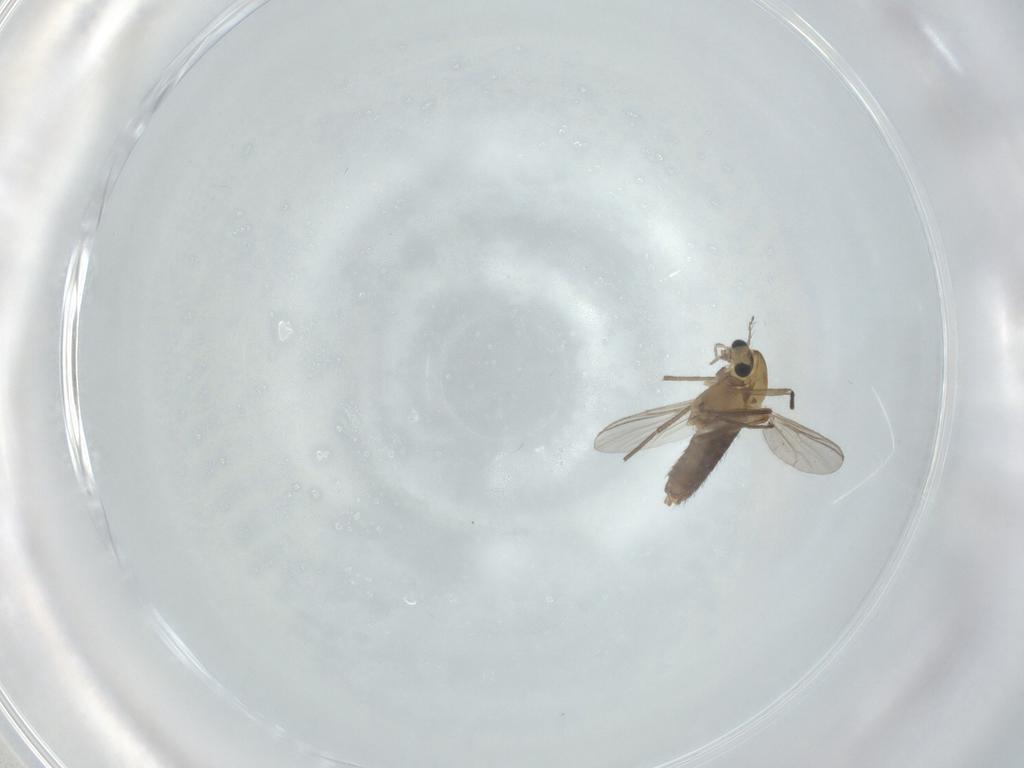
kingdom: Animalia
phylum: Arthropoda
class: Insecta
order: Diptera
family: Chironomidae
